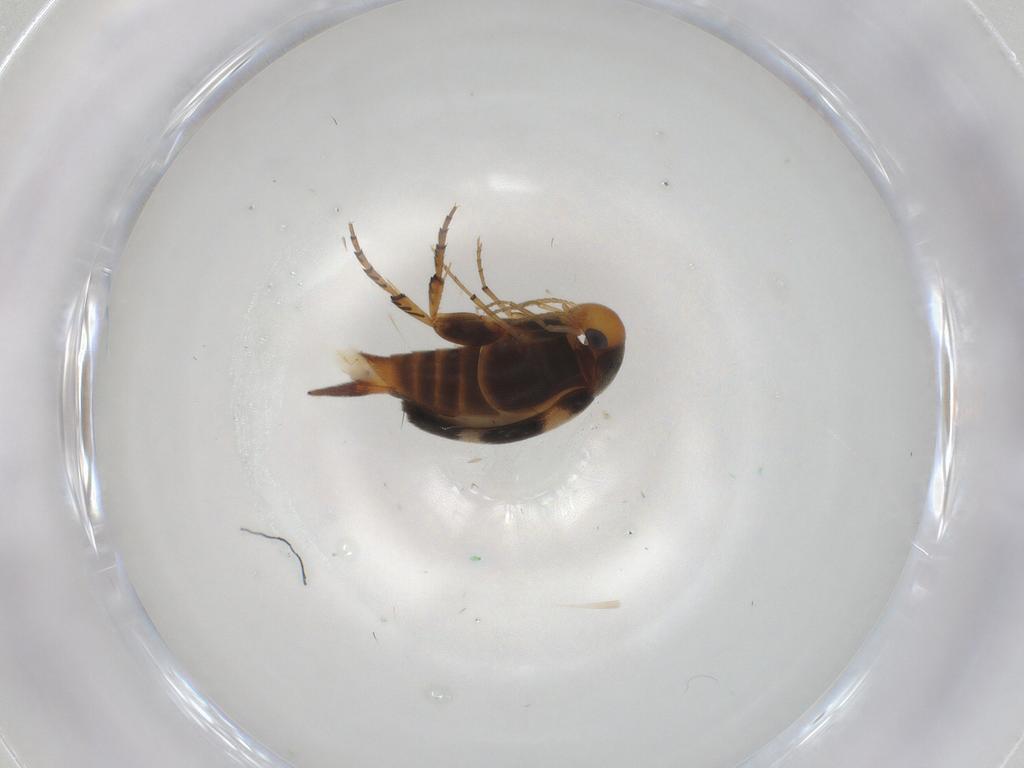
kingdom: Animalia
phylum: Arthropoda
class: Insecta
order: Coleoptera
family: Mordellidae
